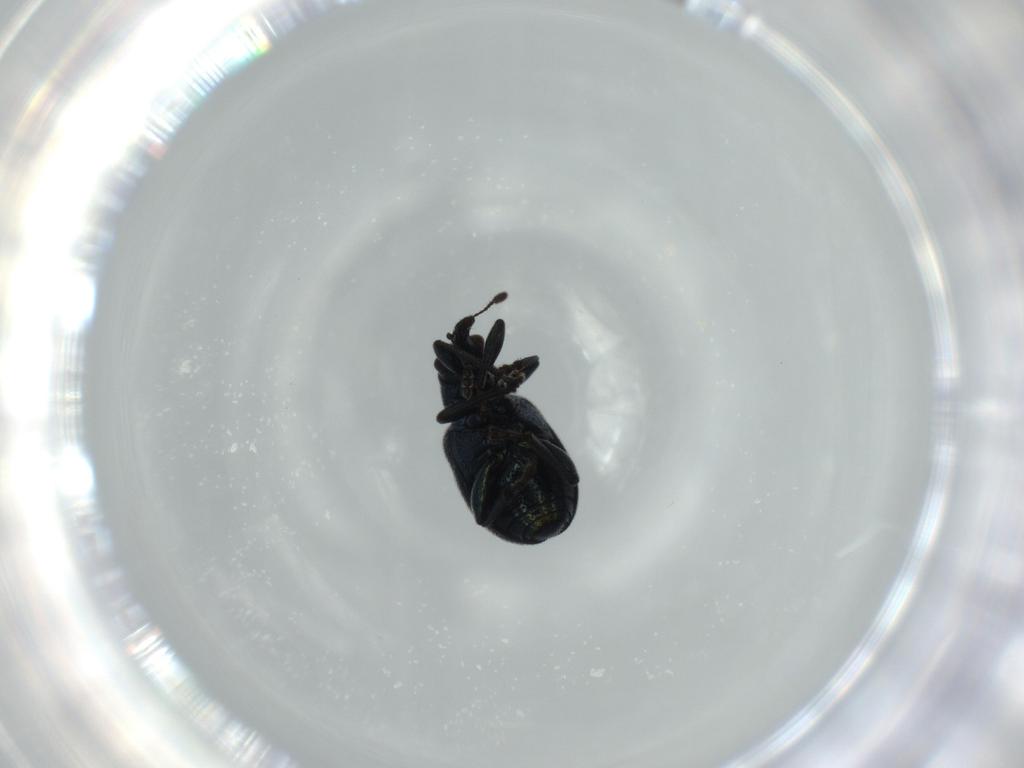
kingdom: Animalia
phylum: Arthropoda
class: Insecta
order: Coleoptera
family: Attelabidae
